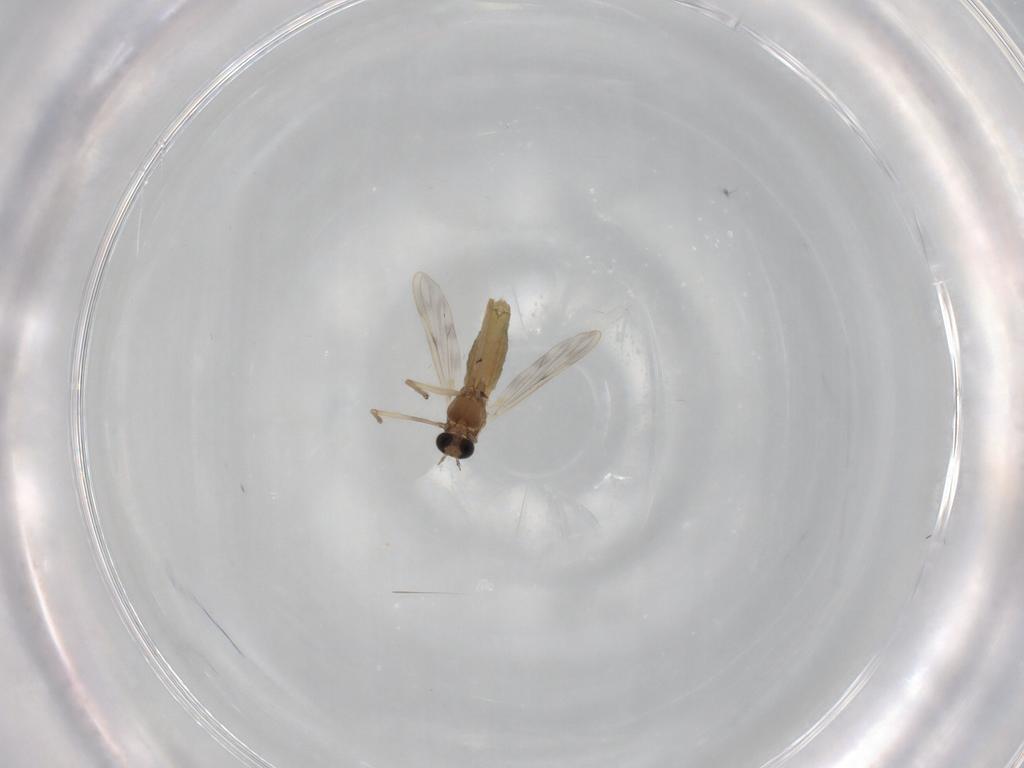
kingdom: Animalia
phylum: Arthropoda
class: Insecta
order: Diptera
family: Chironomidae
